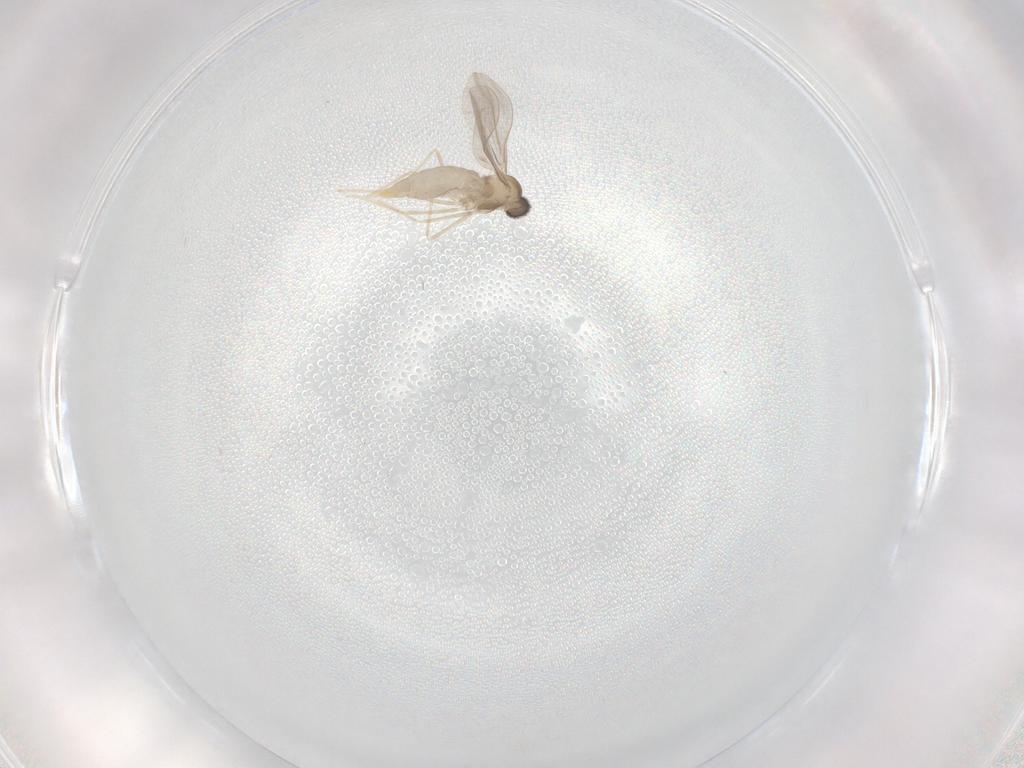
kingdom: Animalia
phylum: Arthropoda
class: Insecta
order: Diptera
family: Cecidomyiidae
